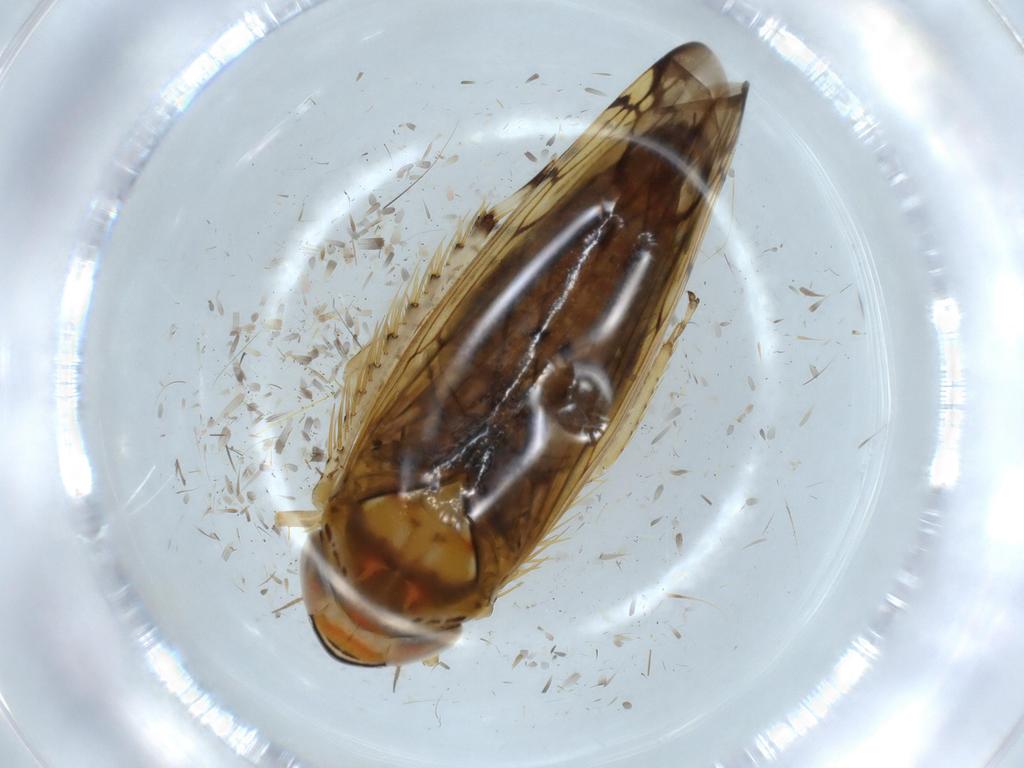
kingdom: Animalia
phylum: Arthropoda
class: Insecta
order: Hemiptera
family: Cicadellidae
